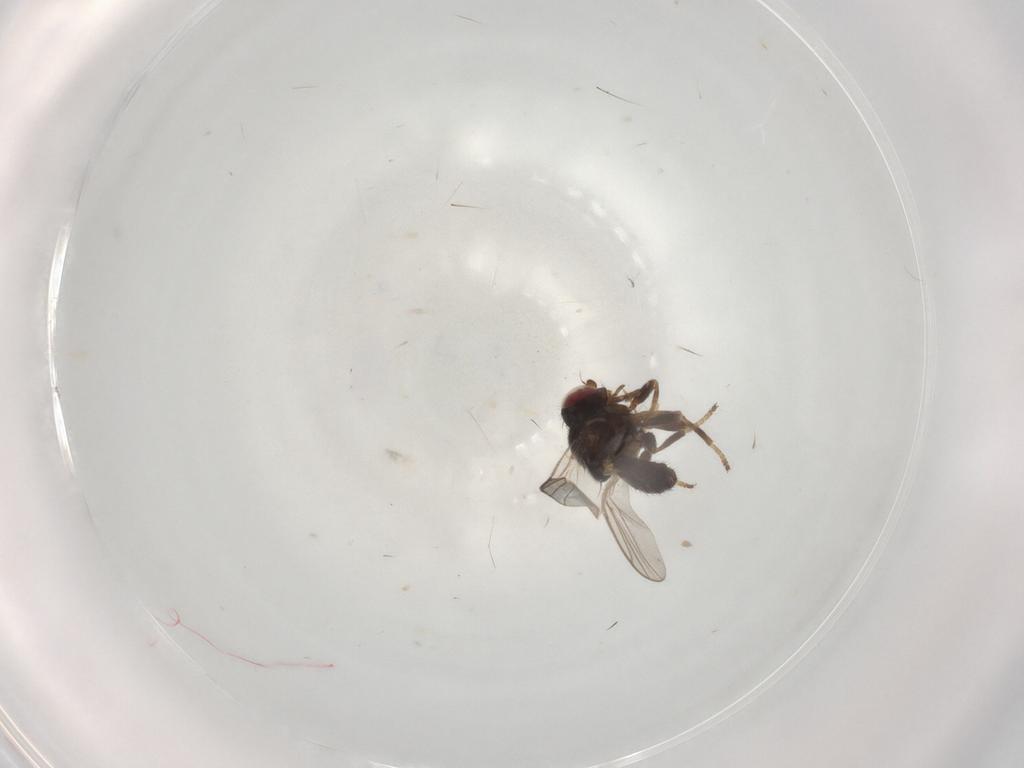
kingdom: Animalia
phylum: Arthropoda
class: Insecta
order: Diptera
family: Chloropidae
